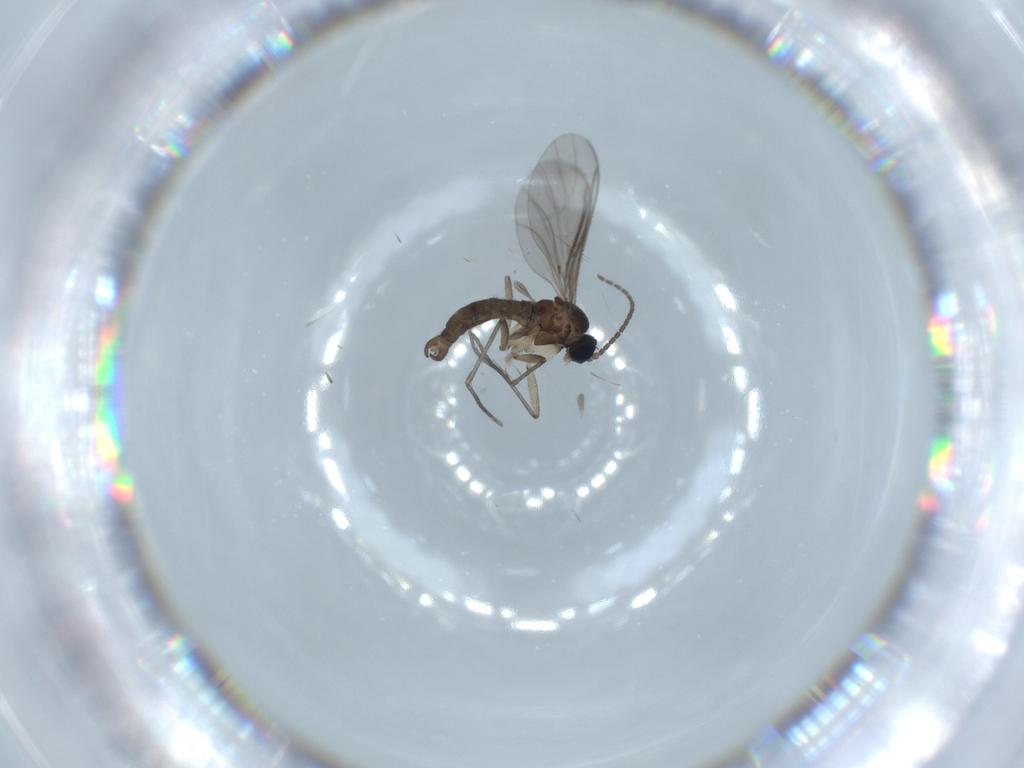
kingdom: Animalia
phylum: Arthropoda
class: Insecta
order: Diptera
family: Sciaridae
